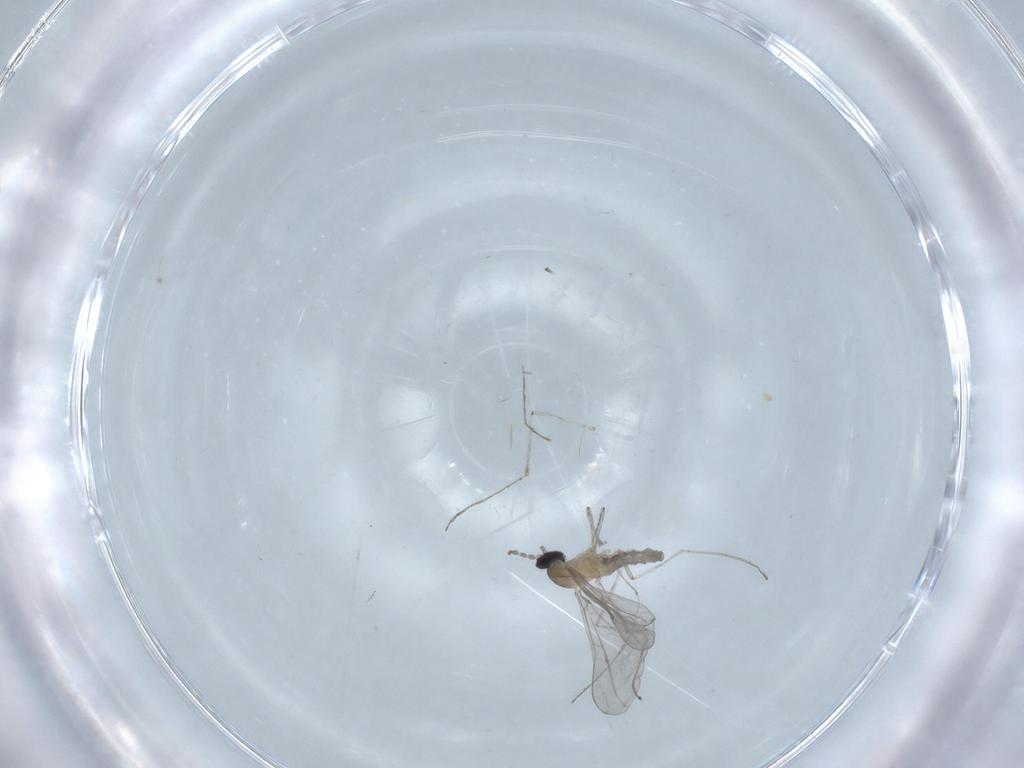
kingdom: Animalia
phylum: Arthropoda
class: Insecta
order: Diptera
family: Cecidomyiidae
